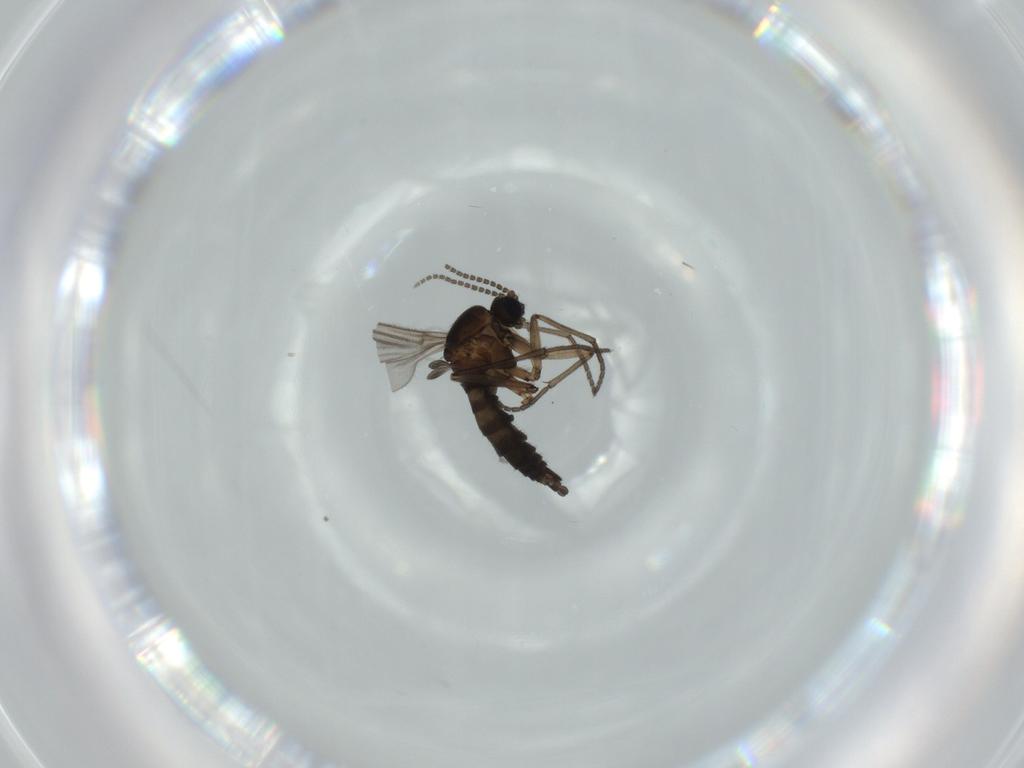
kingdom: Animalia
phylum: Arthropoda
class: Insecta
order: Diptera
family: Sciaridae
